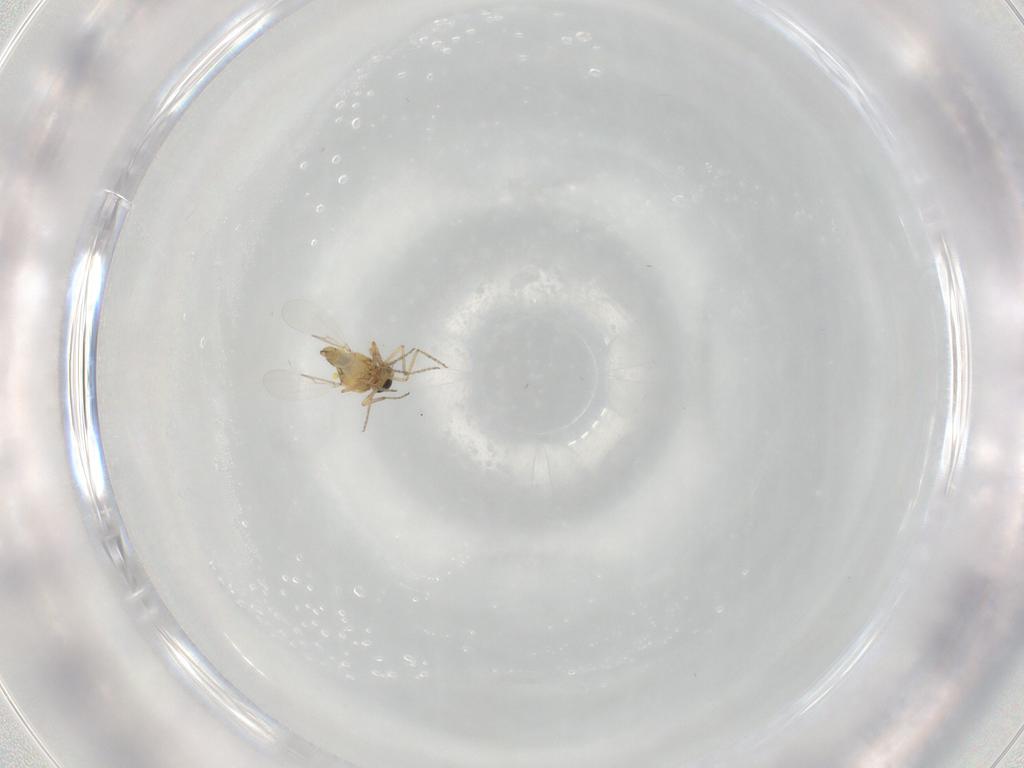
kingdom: Animalia
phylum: Arthropoda
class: Insecta
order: Diptera
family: Ceratopogonidae
